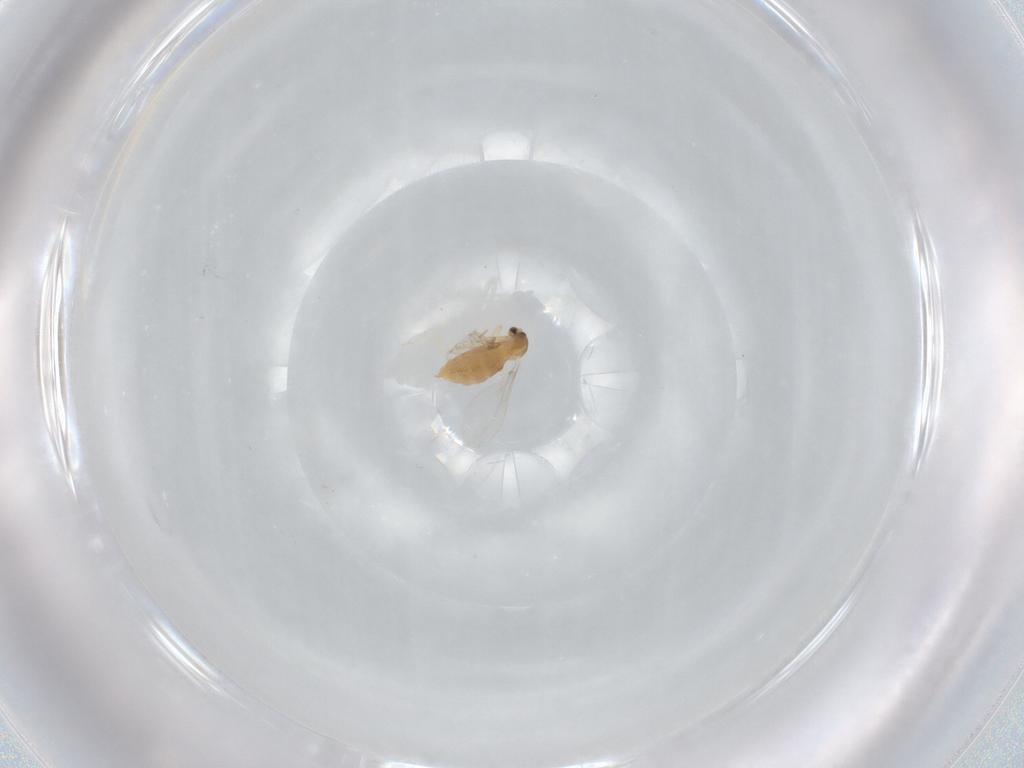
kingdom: Animalia
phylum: Arthropoda
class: Insecta
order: Diptera
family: Cecidomyiidae
